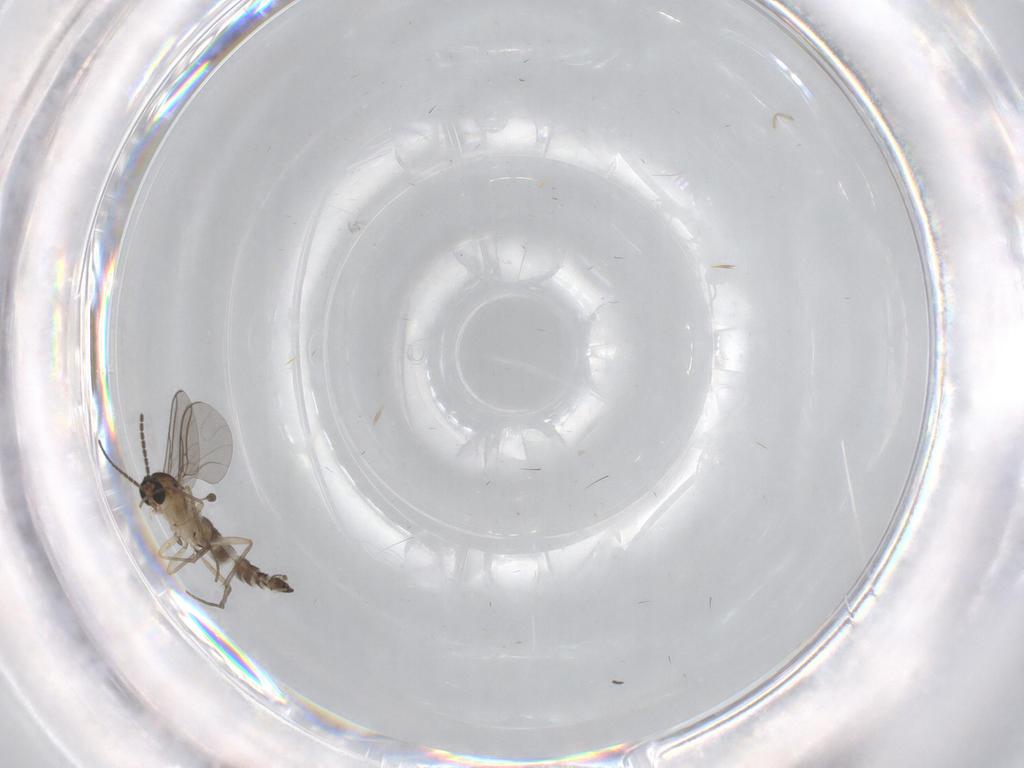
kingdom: Animalia
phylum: Arthropoda
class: Insecta
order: Diptera
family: Sciaridae
